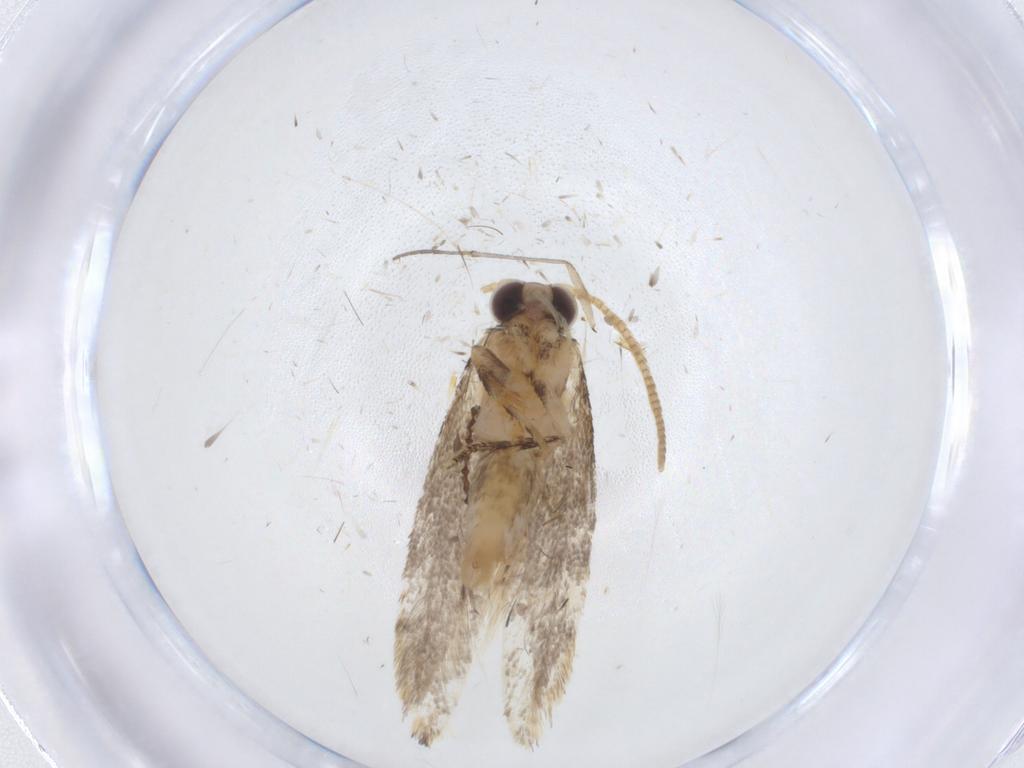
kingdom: Animalia
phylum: Arthropoda
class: Insecta
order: Lepidoptera
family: Tineidae
